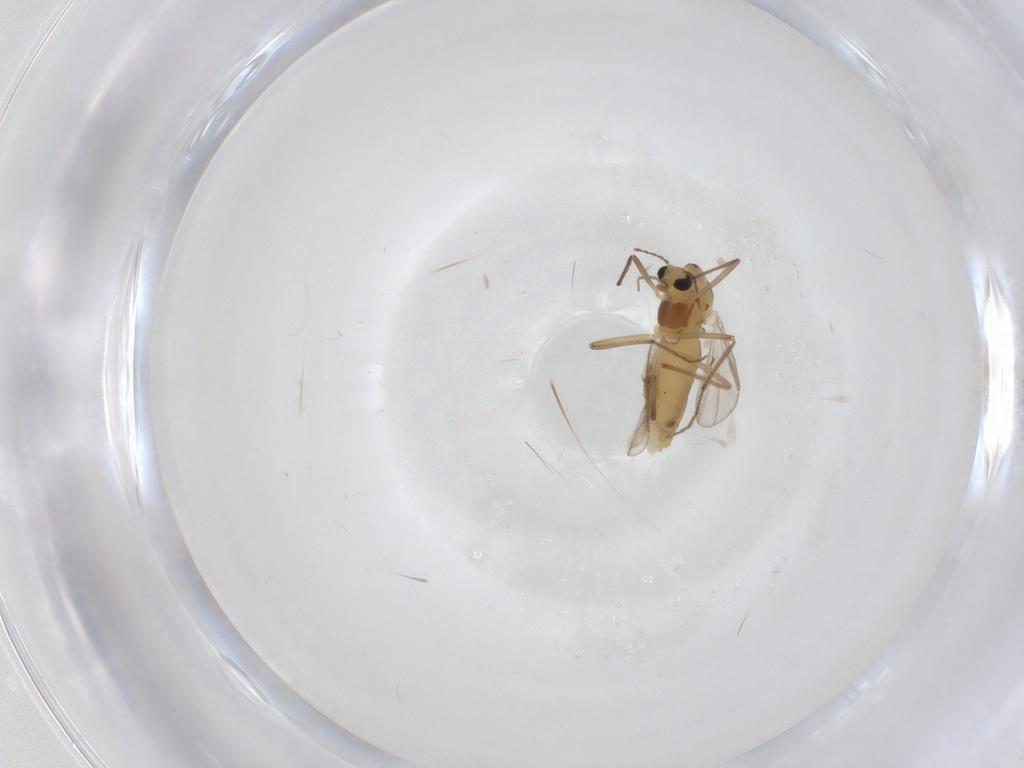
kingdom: Animalia
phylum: Arthropoda
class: Insecta
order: Diptera
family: Chironomidae
